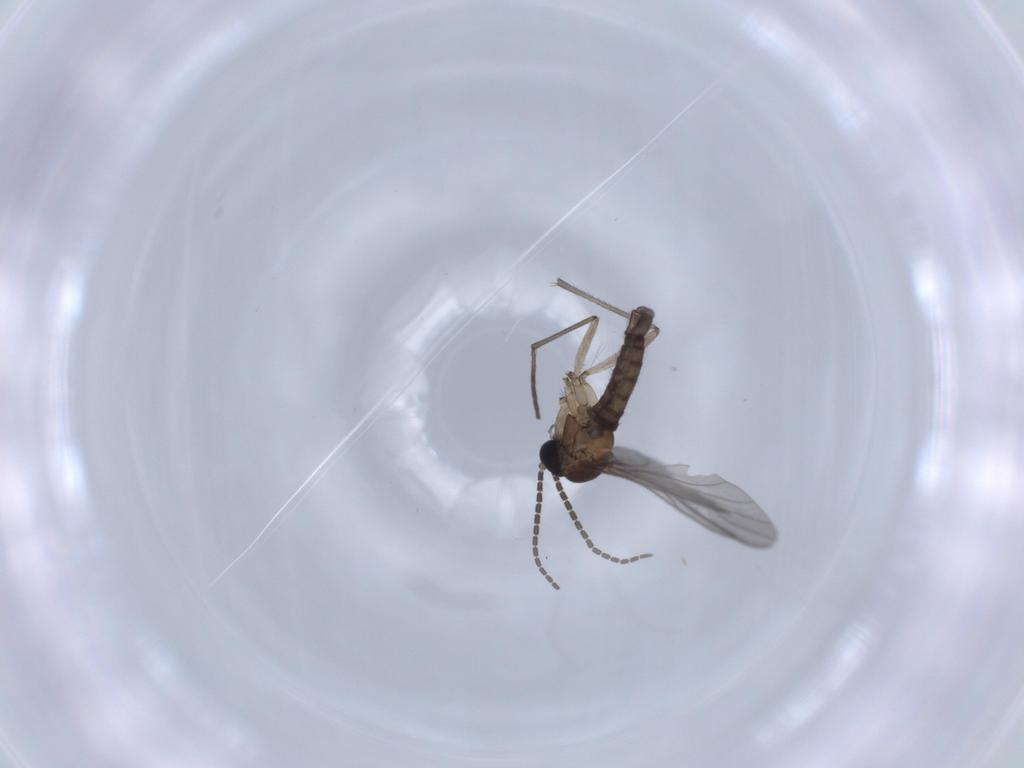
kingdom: Animalia
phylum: Arthropoda
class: Insecta
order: Diptera
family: Sciaridae
